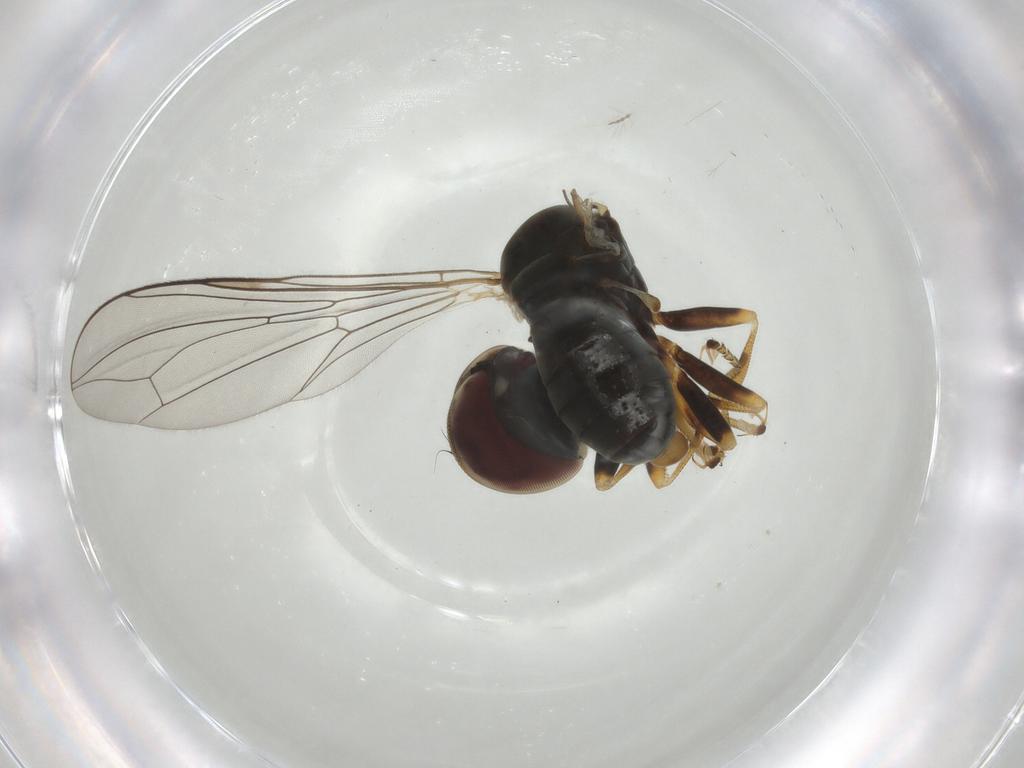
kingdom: Animalia
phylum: Arthropoda
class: Insecta
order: Diptera
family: Pipunculidae
